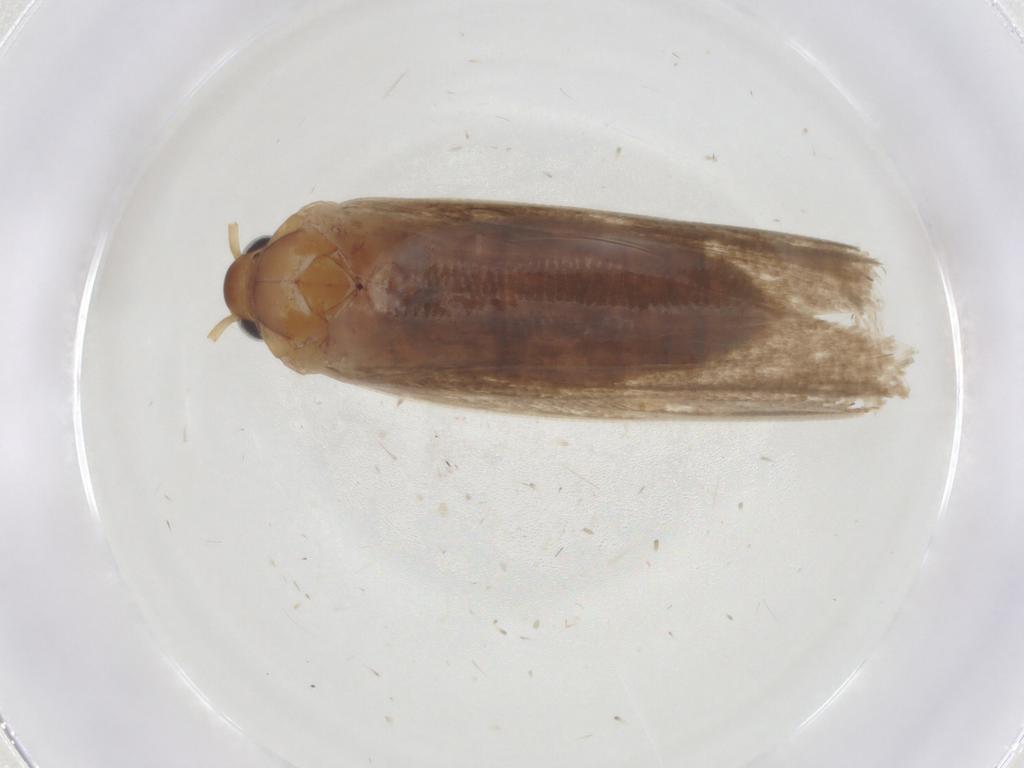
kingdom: Animalia
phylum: Arthropoda
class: Insecta
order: Lepidoptera
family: Blastobasidae
